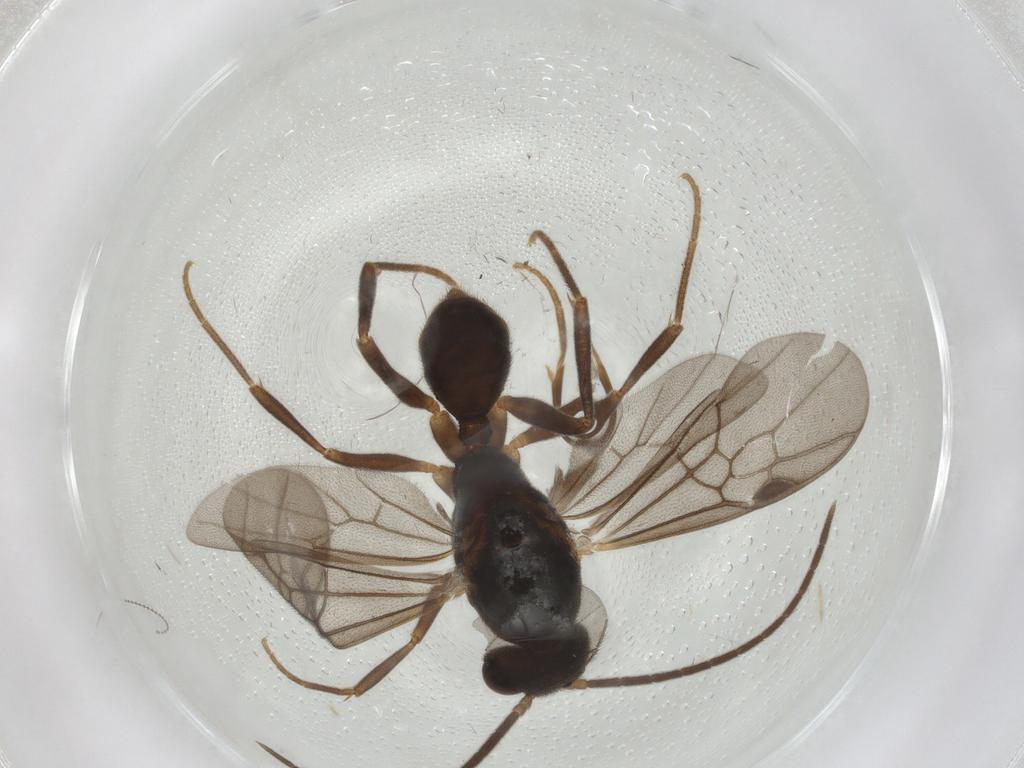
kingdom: Animalia
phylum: Arthropoda
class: Insecta
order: Hymenoptera
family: Formicidae
